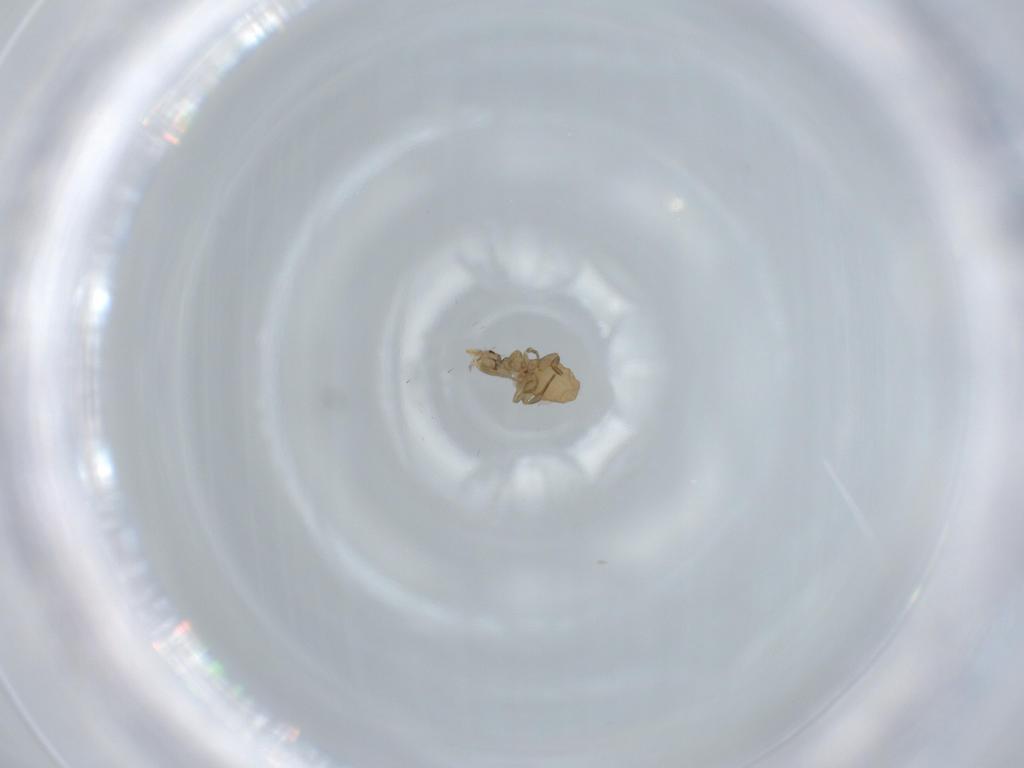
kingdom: Animalia
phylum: Arthropoda
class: Insecta
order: Diptera
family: Phoridae
